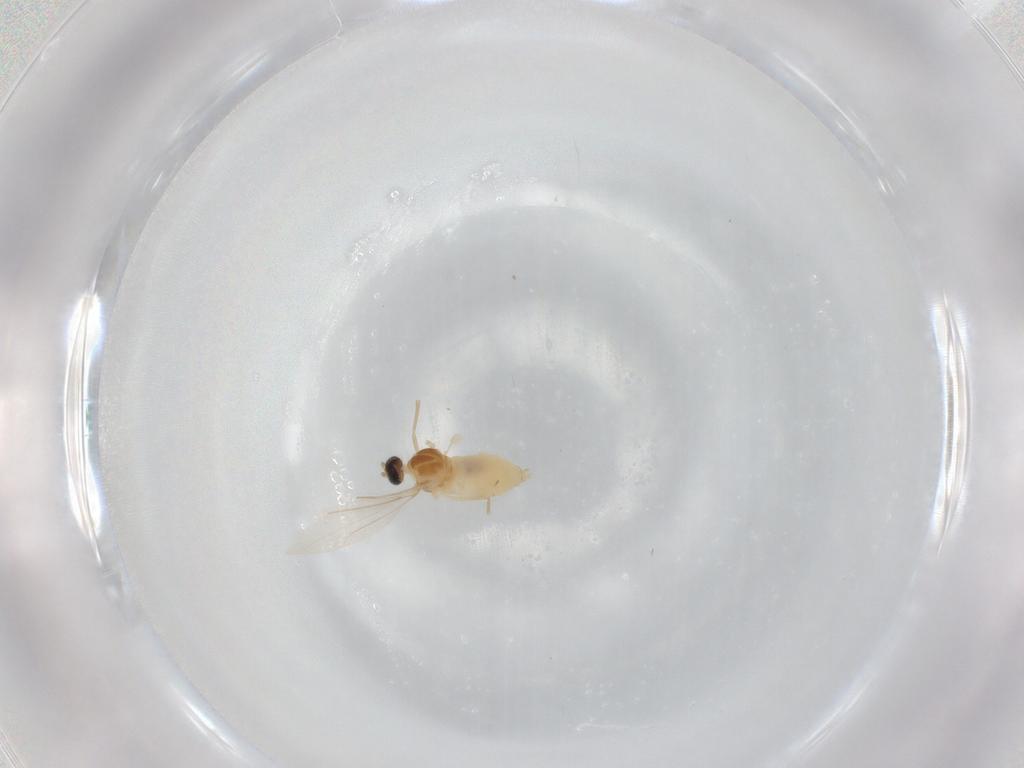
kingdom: Animalia
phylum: Arthropoda
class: Insecta
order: Diptera
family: Cecidomyiidae
